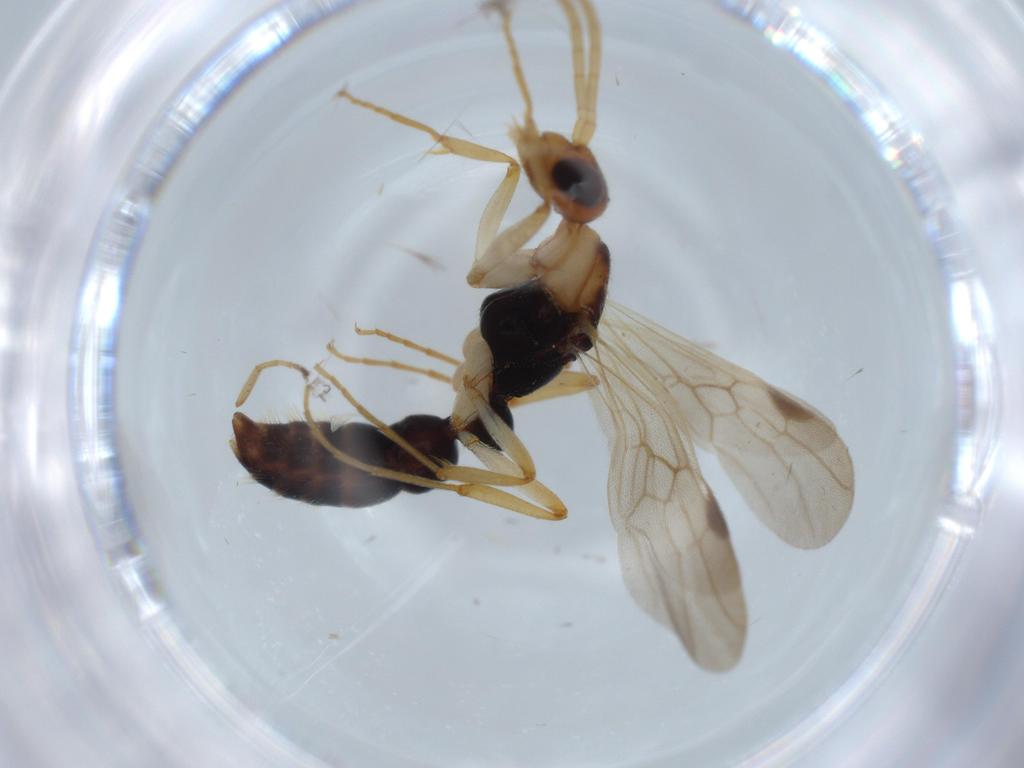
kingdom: Animalia
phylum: Arthropoda
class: Insecta
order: Hymenoptera
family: Formicidae
